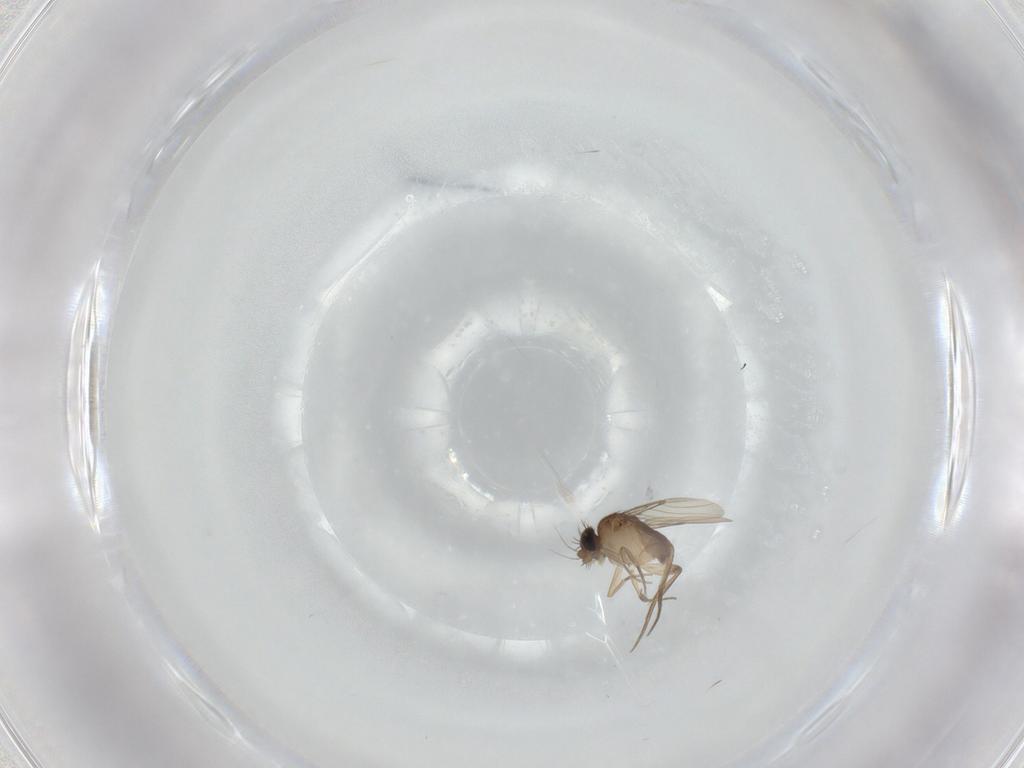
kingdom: Animalia
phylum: Arthropoda
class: Insecta
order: Diptera
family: Phoridae
